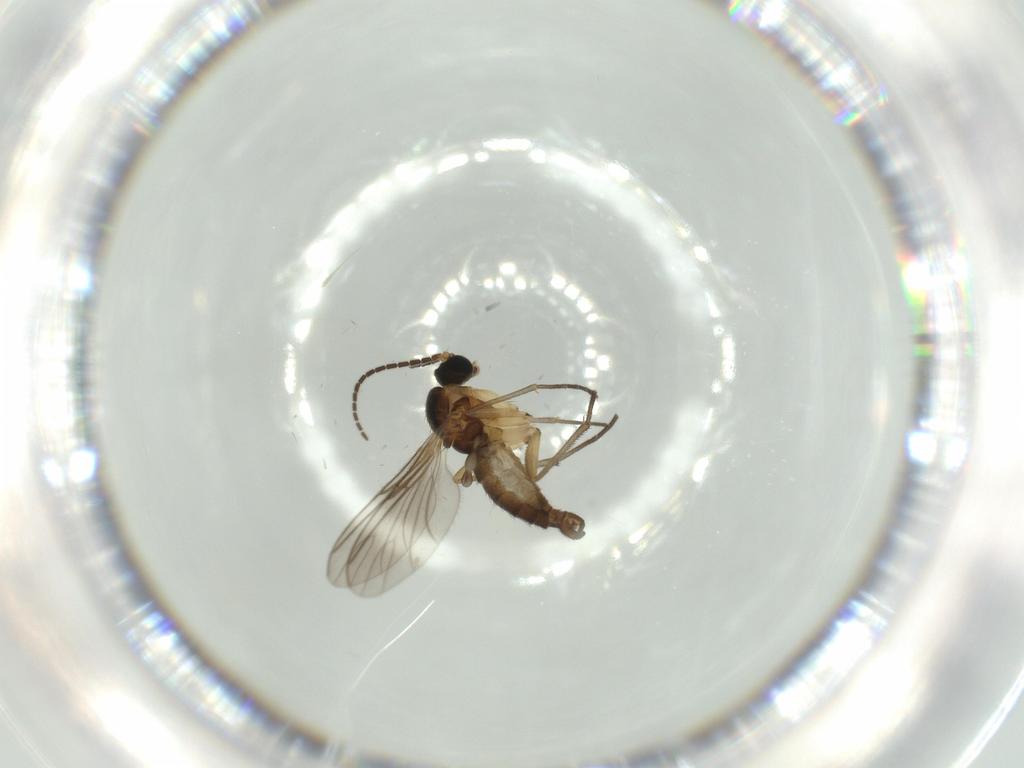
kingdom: Animalia
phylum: Arthropoda
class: Insecta
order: Diptera
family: Sciaridae
